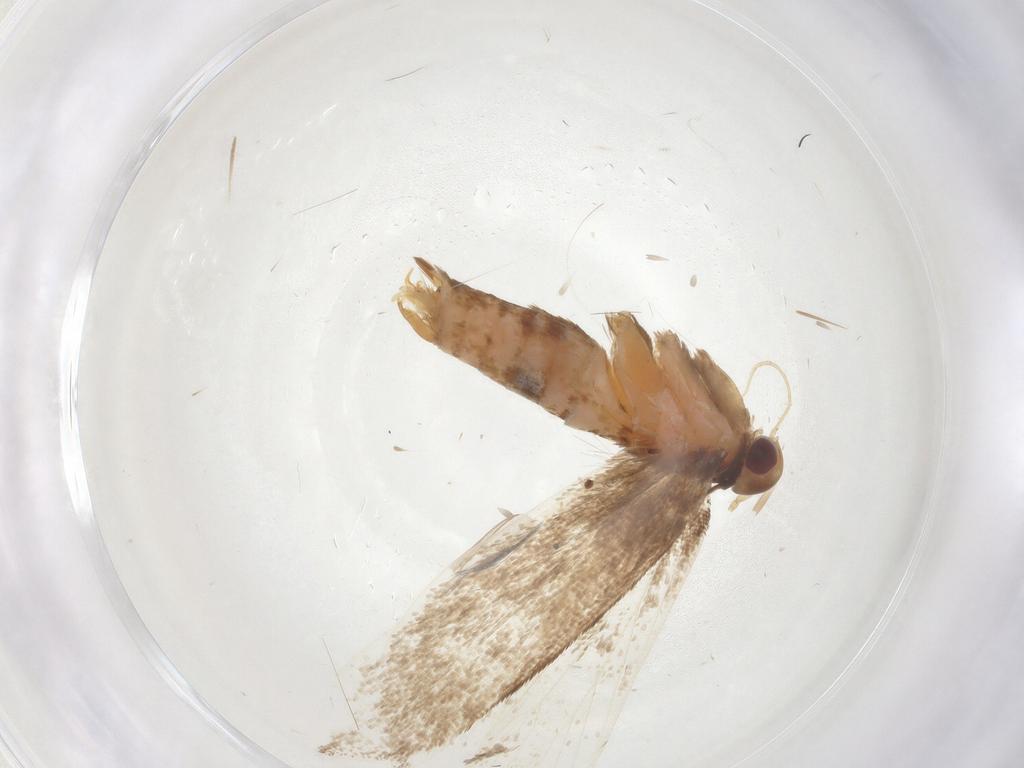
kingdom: Animalia
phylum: Arthropoda
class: Insecta
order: Lepidoptera
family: Gelechiidae
